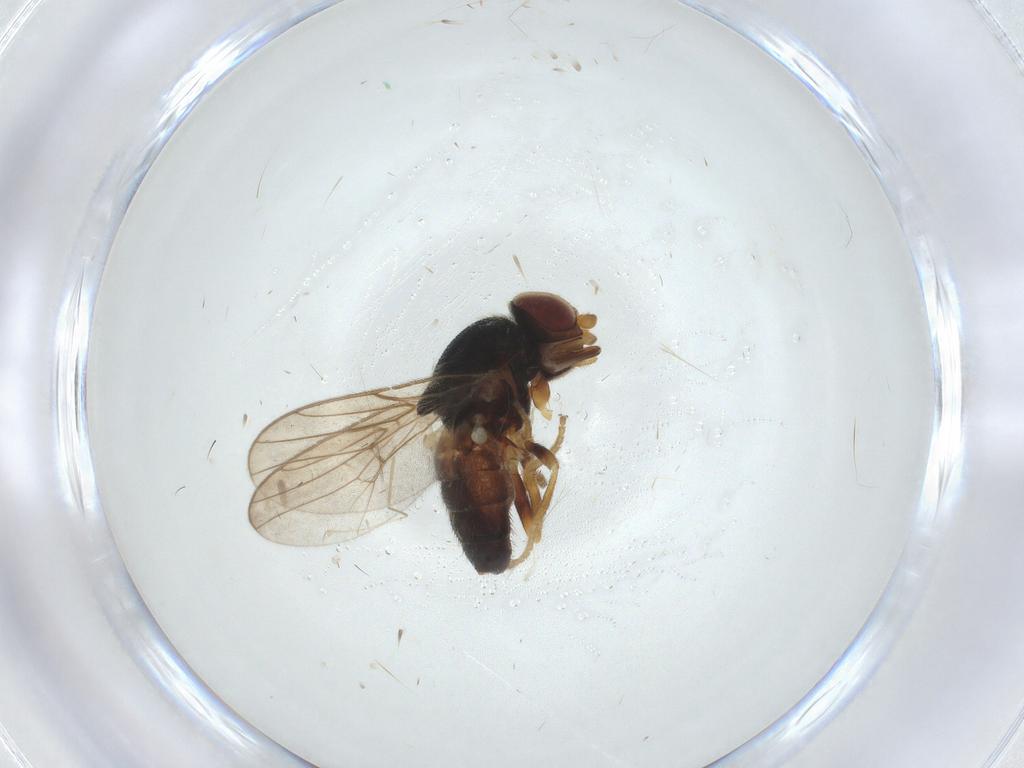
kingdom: Animalia
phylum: Arthropoda
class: Insecta
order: Diptera
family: Chloropidae
